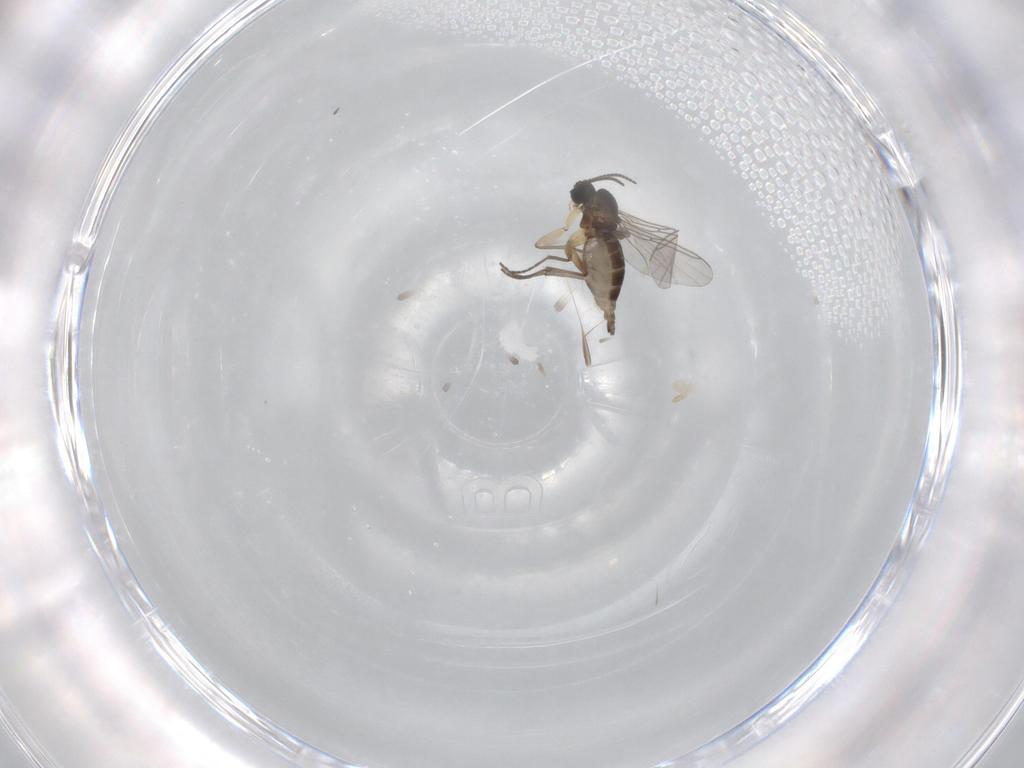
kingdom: Animalia
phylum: Arthropoda
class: Insecta
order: Diptera
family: Sciaridae
